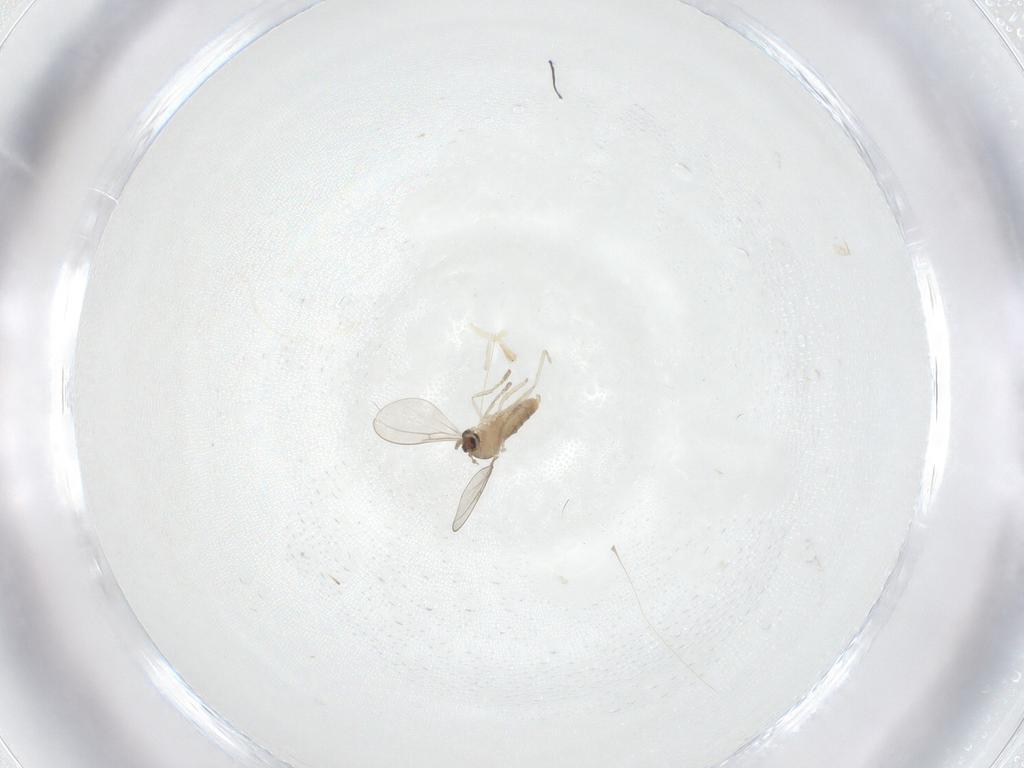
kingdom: Animalia
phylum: Arthropoda
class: Insecta
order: Diptera
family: Cecidomyiidae
